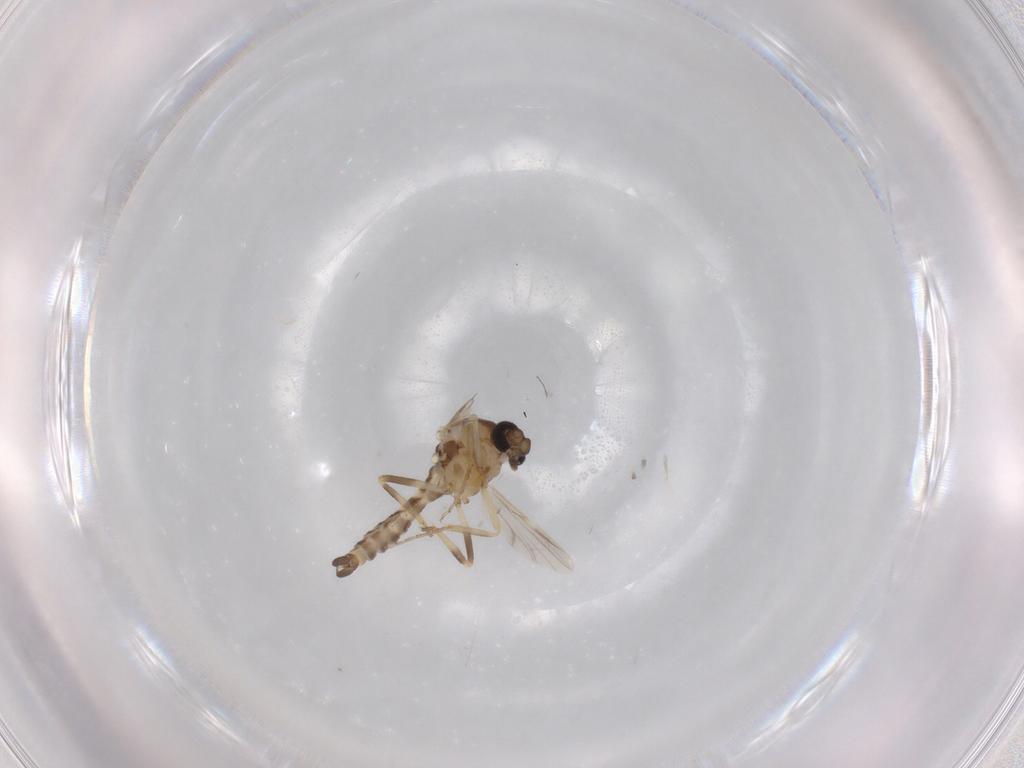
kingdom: Animalia
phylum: Arthropoda
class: Insecta
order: Diptera
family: Ceratopogonidae
